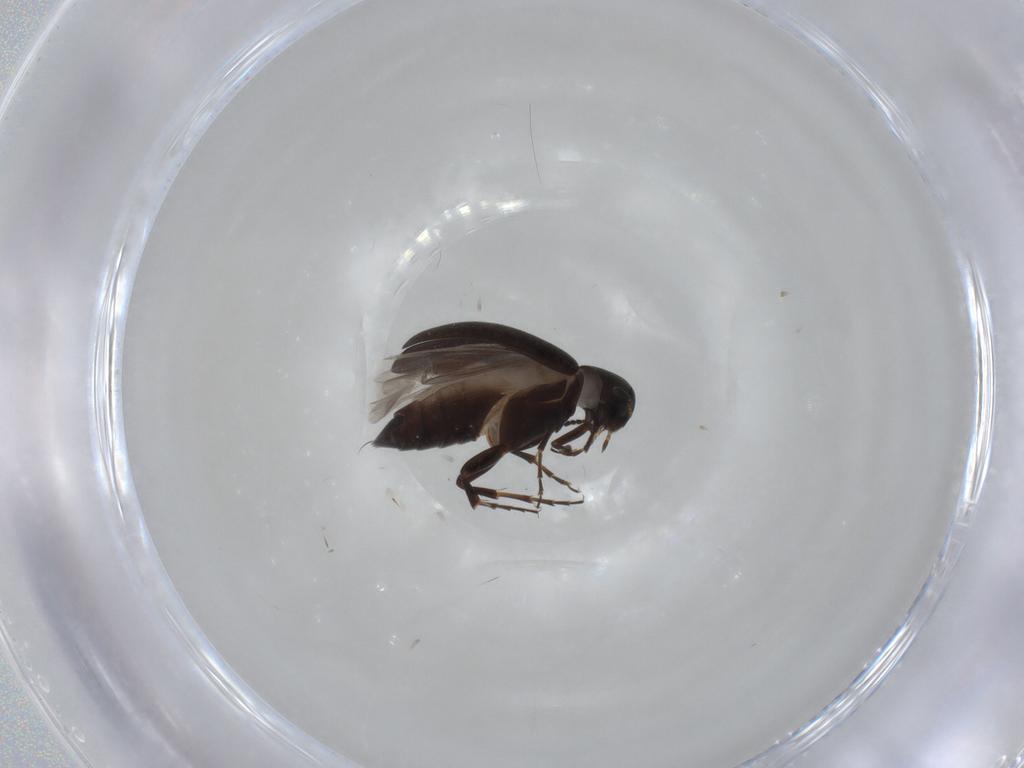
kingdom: Animalia
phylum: Arthropoda
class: Insecta
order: Coleoptera
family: Scraptiidae
